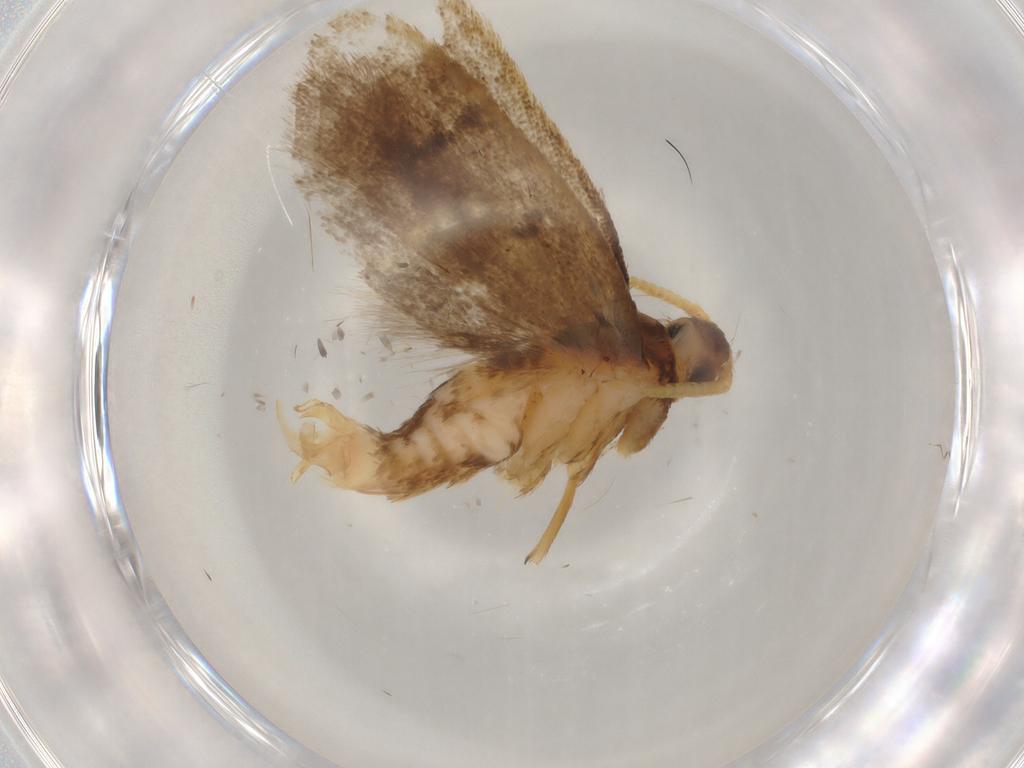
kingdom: Animalia
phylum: Arthropoda
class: Insecta
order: Lepidoptera
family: Lecithoceridae
